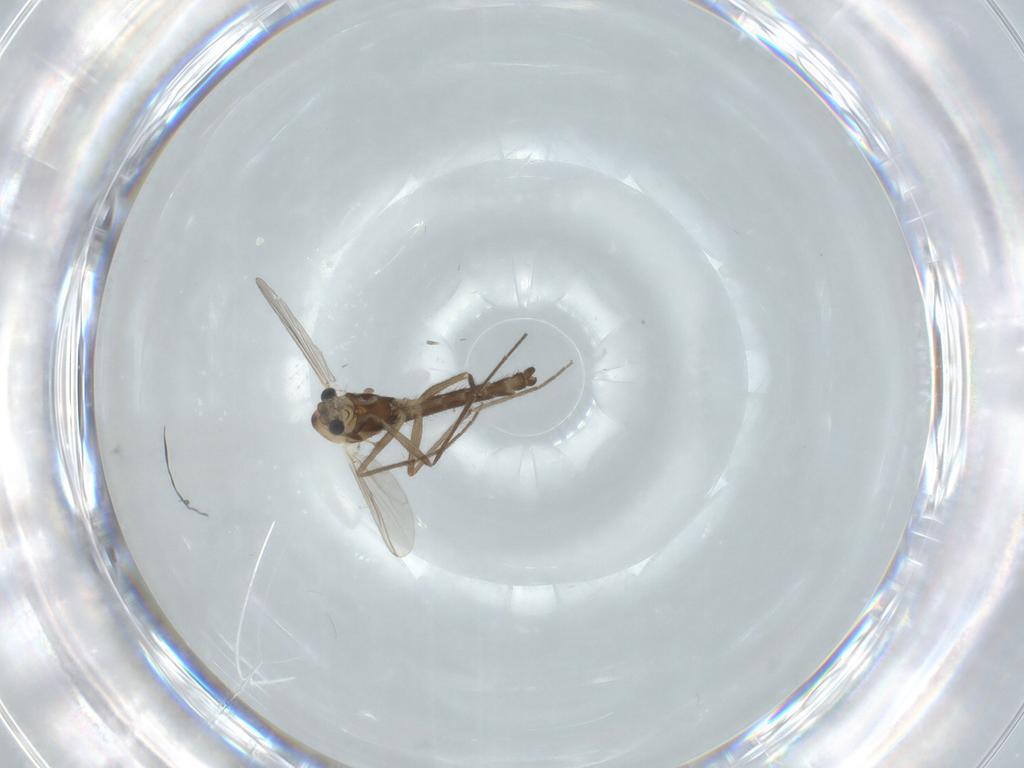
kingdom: Animalia
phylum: Arthropoda
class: Insecta
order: Diptera
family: Chironomidae
